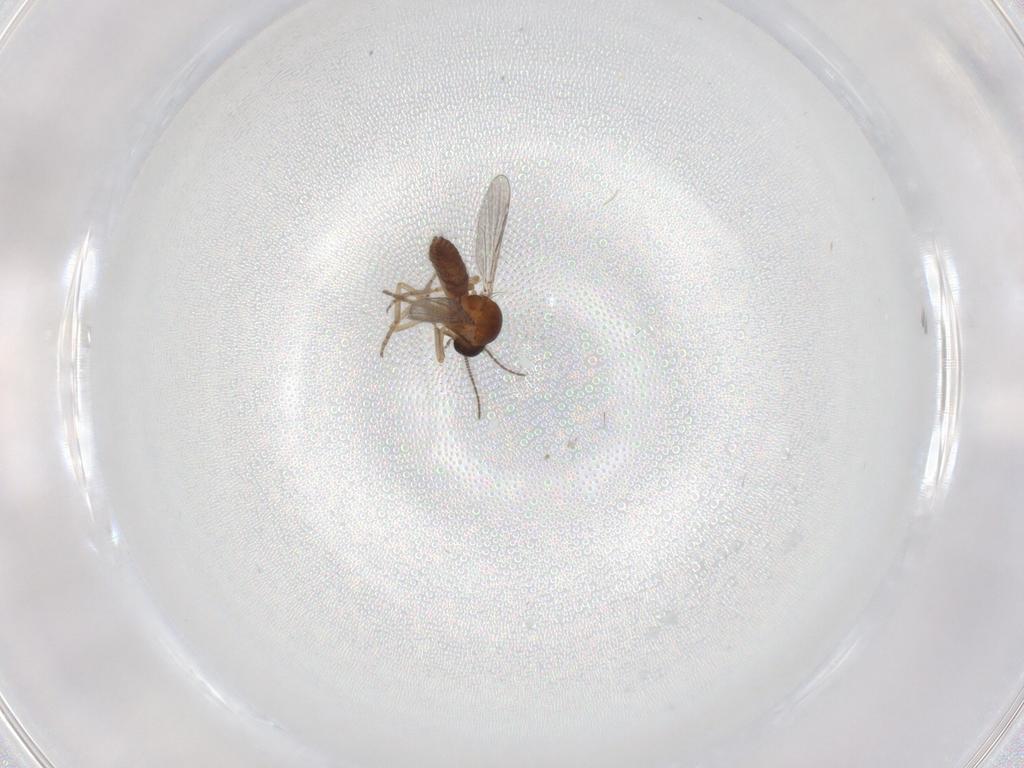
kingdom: Animalia
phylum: Arthropoda
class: Insecta
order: Diptera
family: Ceratopogonidae
